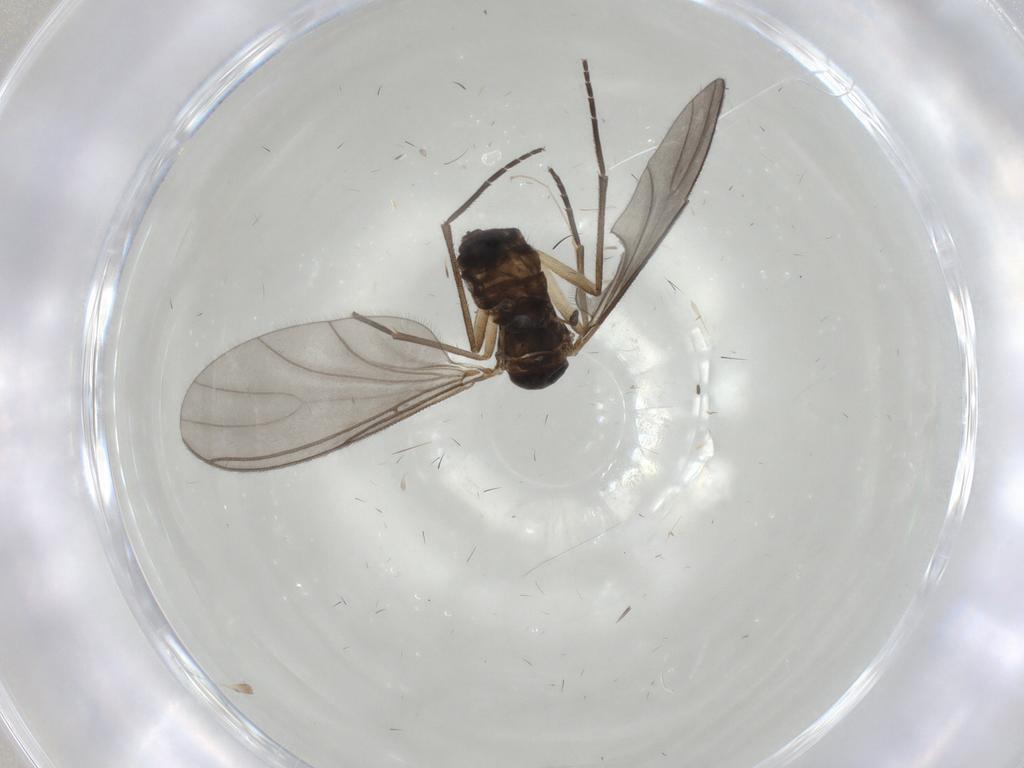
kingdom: Animalia
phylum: Arthropoda
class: Insecta
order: Diptera
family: Sciaridae
